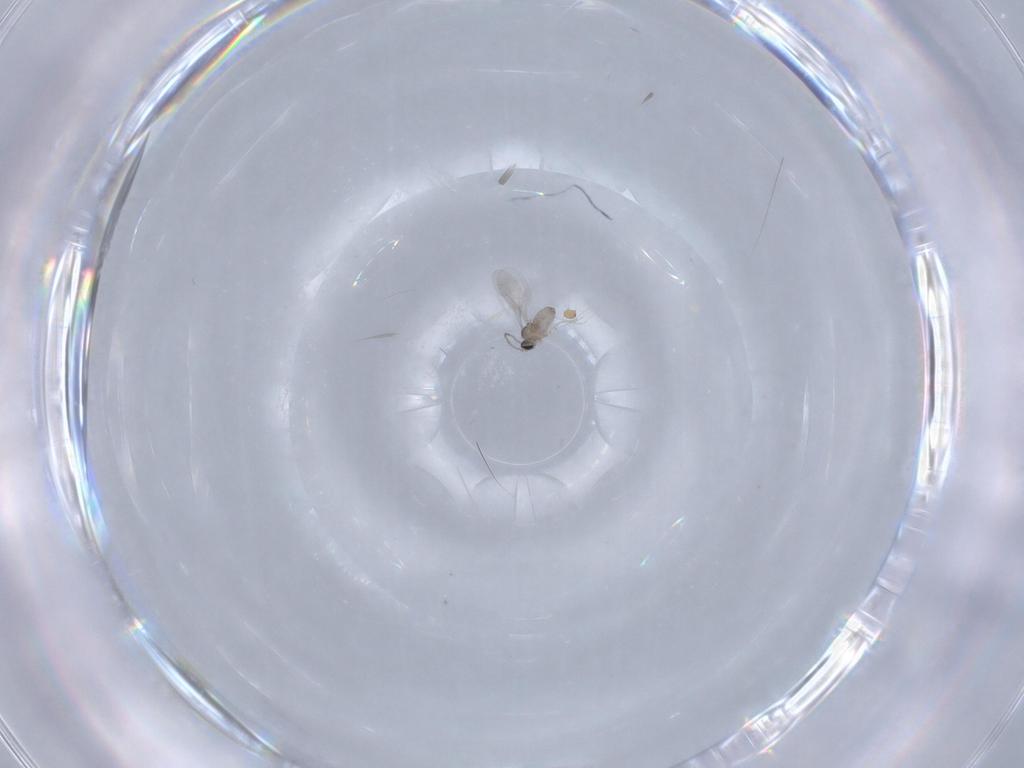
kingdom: Animalia
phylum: Arthropoda
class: Insecta
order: Diptera
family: Cecidomyiidae
